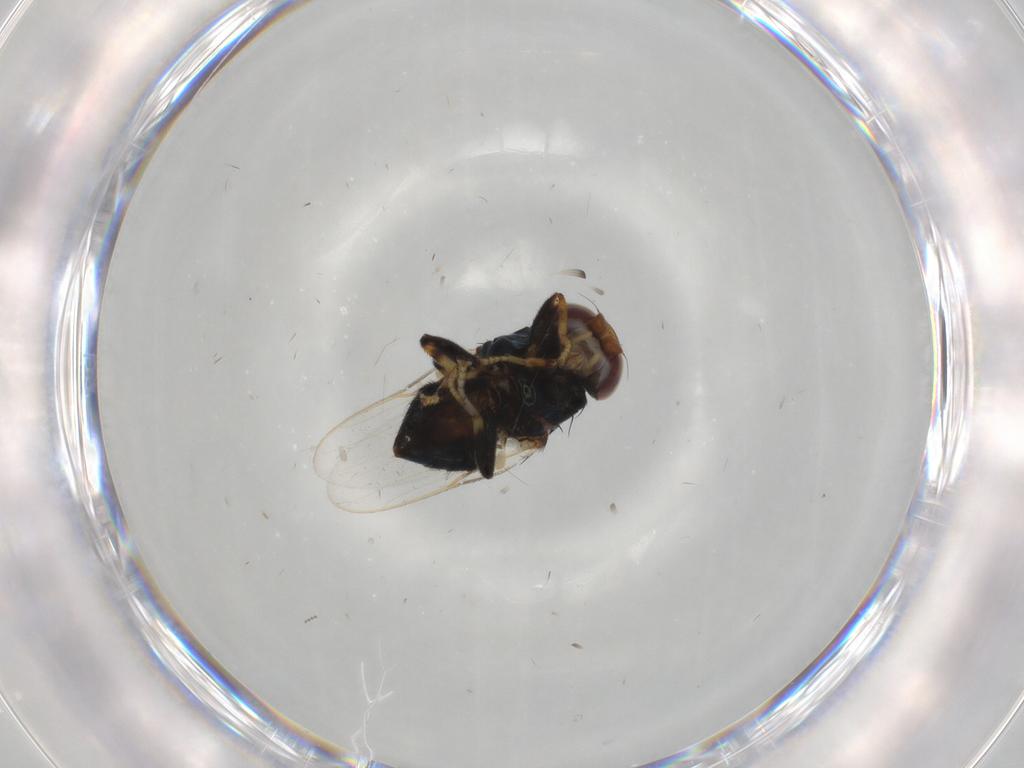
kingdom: Animalia
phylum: Arthropoda
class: Insecta
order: Diptera
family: Chloropidae
